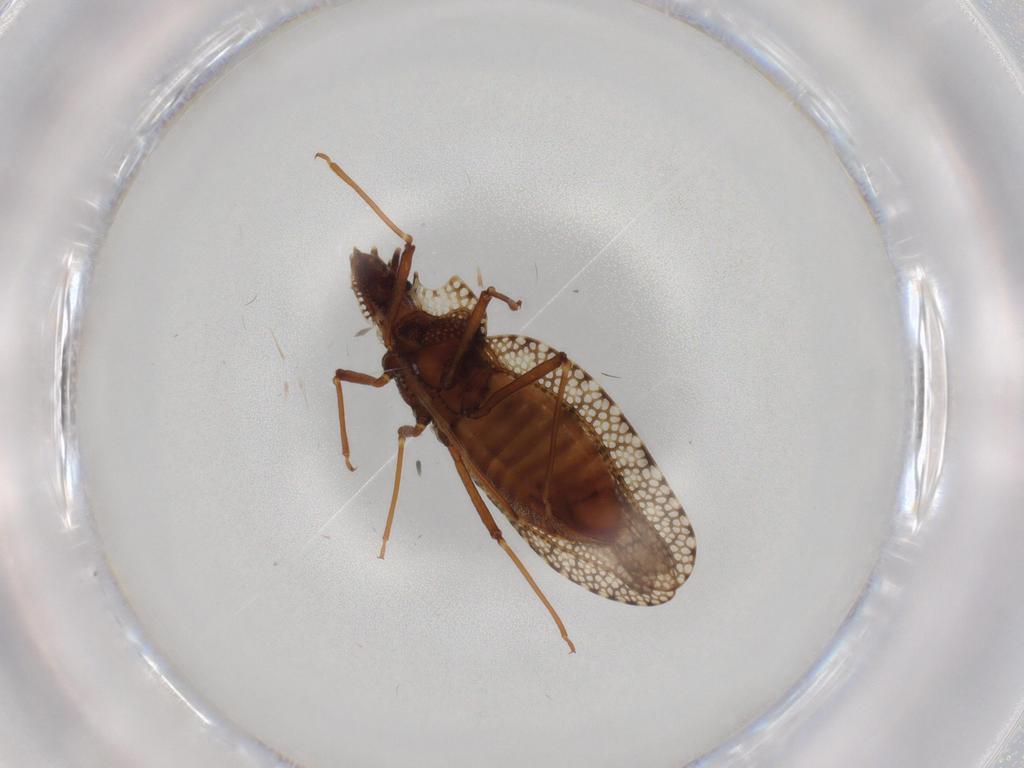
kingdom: Animalia
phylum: Arthropoda
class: Insecta
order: Hemiptera
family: Tingidae
